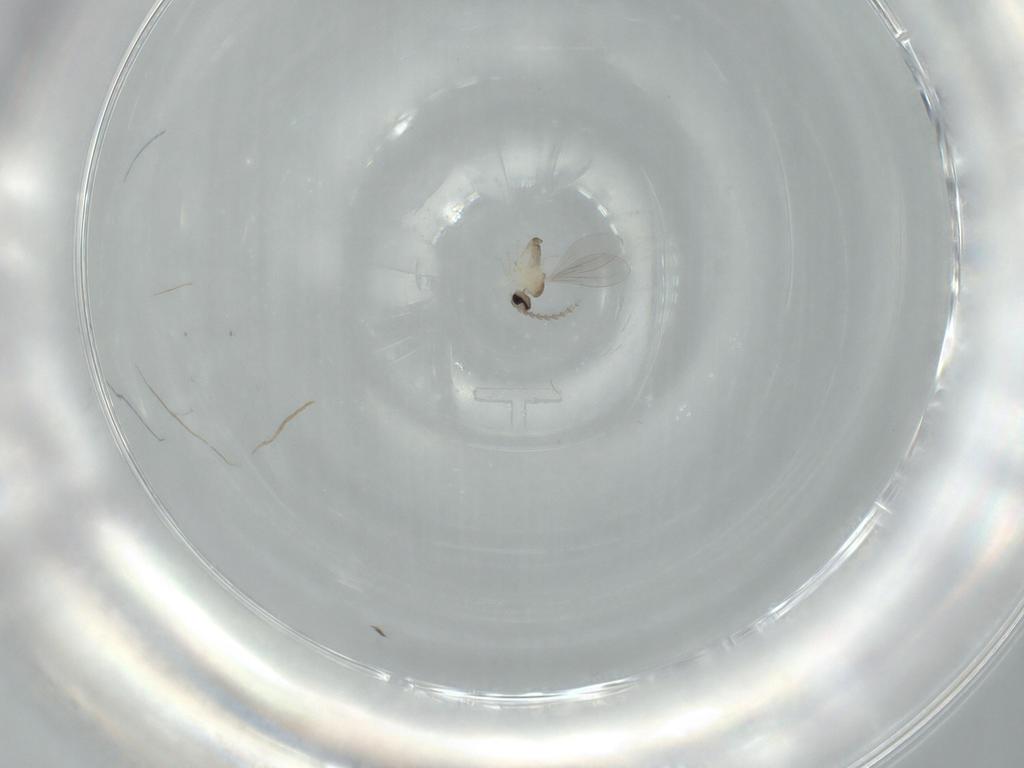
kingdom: Animalia
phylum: Arthropoda
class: Insecta
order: Diptera
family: Cecidomyiidae
